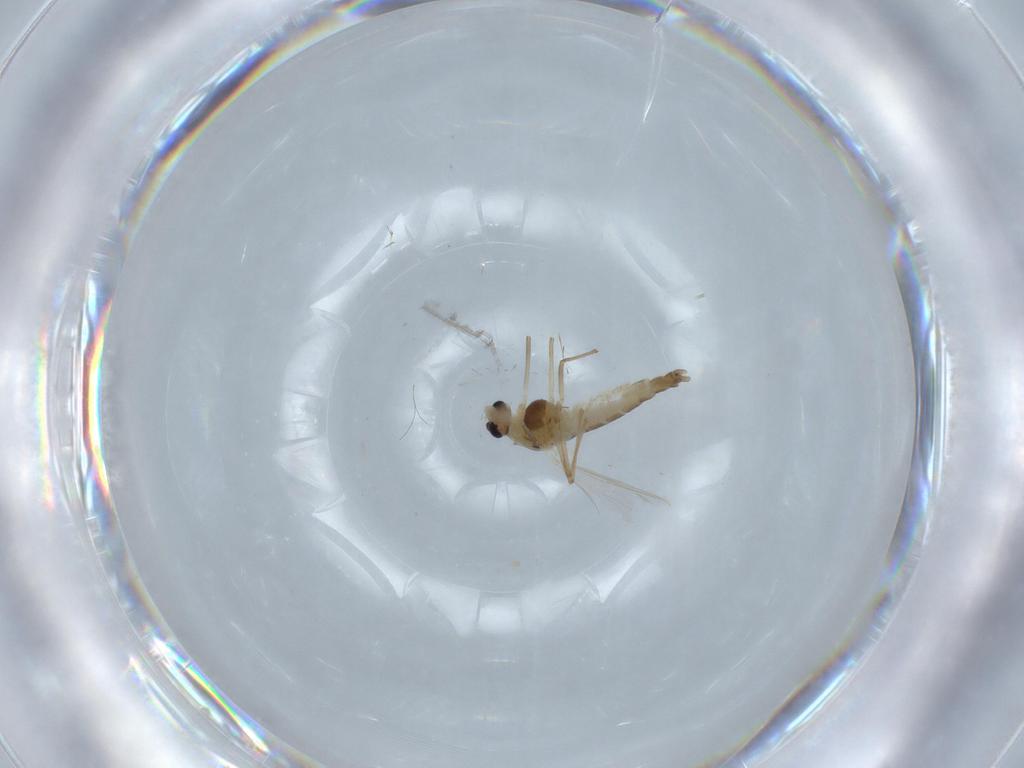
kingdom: Animalia
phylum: Arthropoda
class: Insecta
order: Diptera
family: Chironomidae
